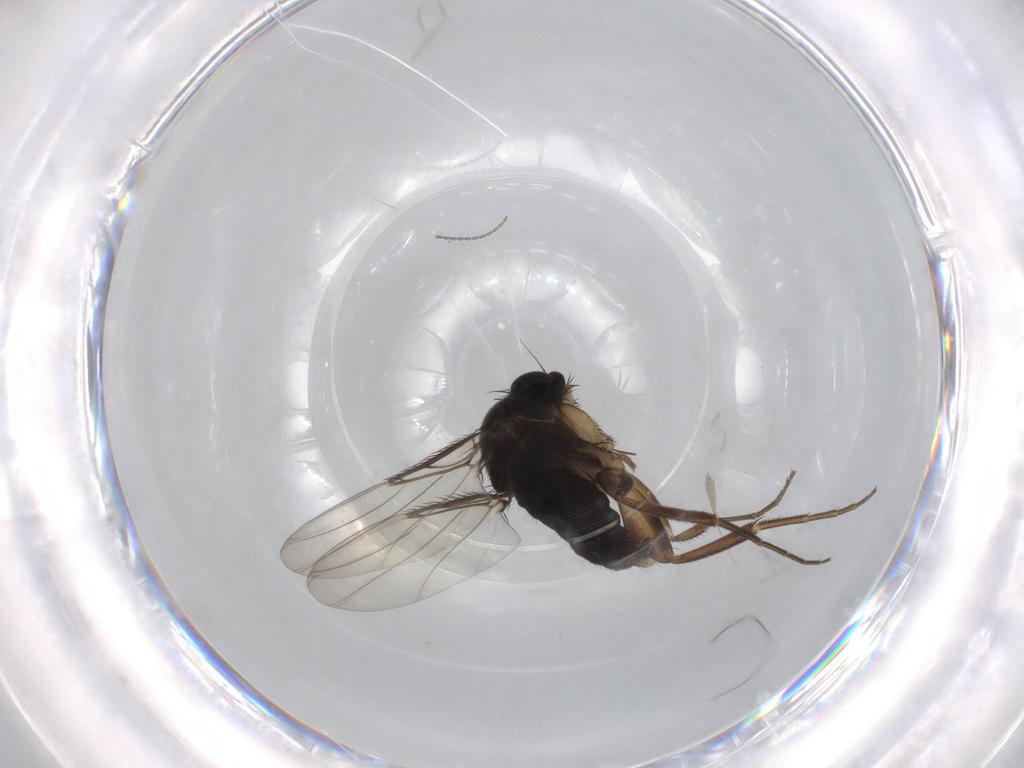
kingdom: Animalia
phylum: Arthropoda
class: Insecta
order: Diptera
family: Phoridae
